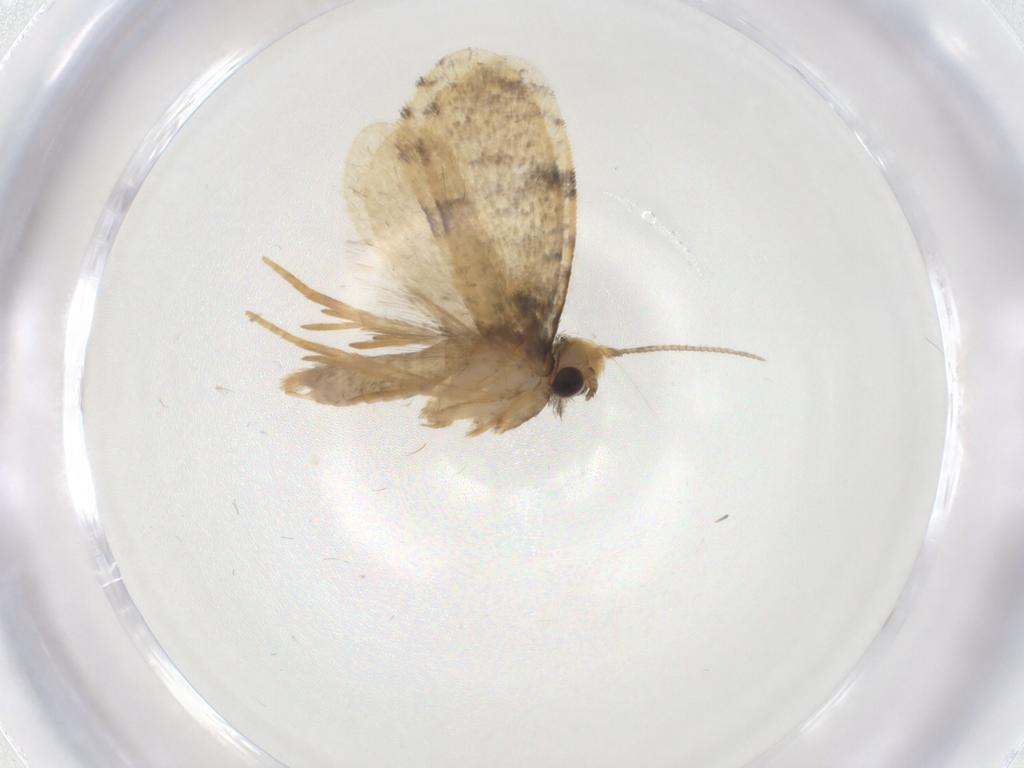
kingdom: Animalia
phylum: Arthropoda
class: Insecta
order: Lepidoptera
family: Psychidae
